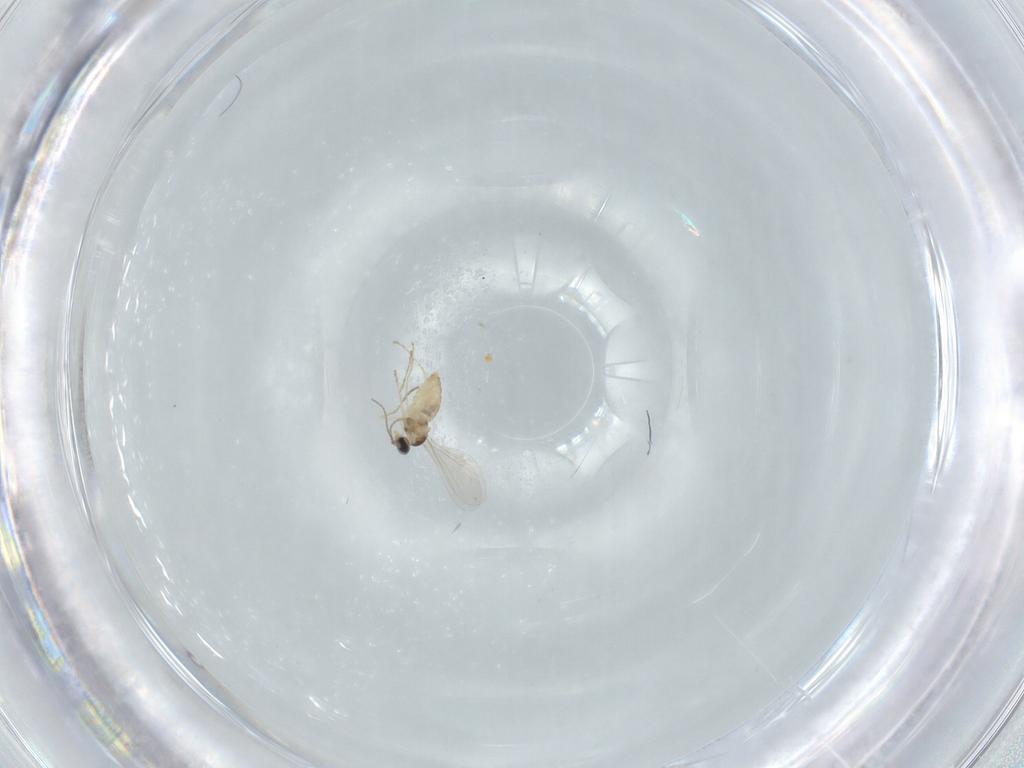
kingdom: Animalia
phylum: Arthropoda
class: Insecta
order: Diptera
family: Cecidomyiidae
